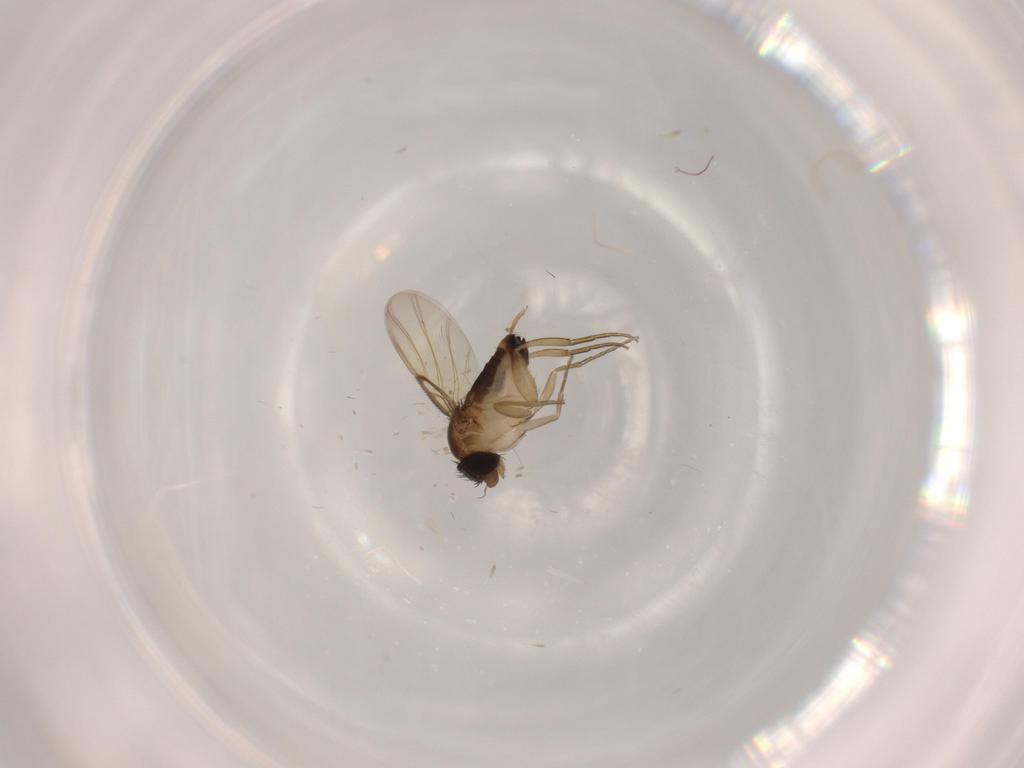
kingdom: Animalia
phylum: Arthropoda
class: Insecta
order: Diptera
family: Phoridae
